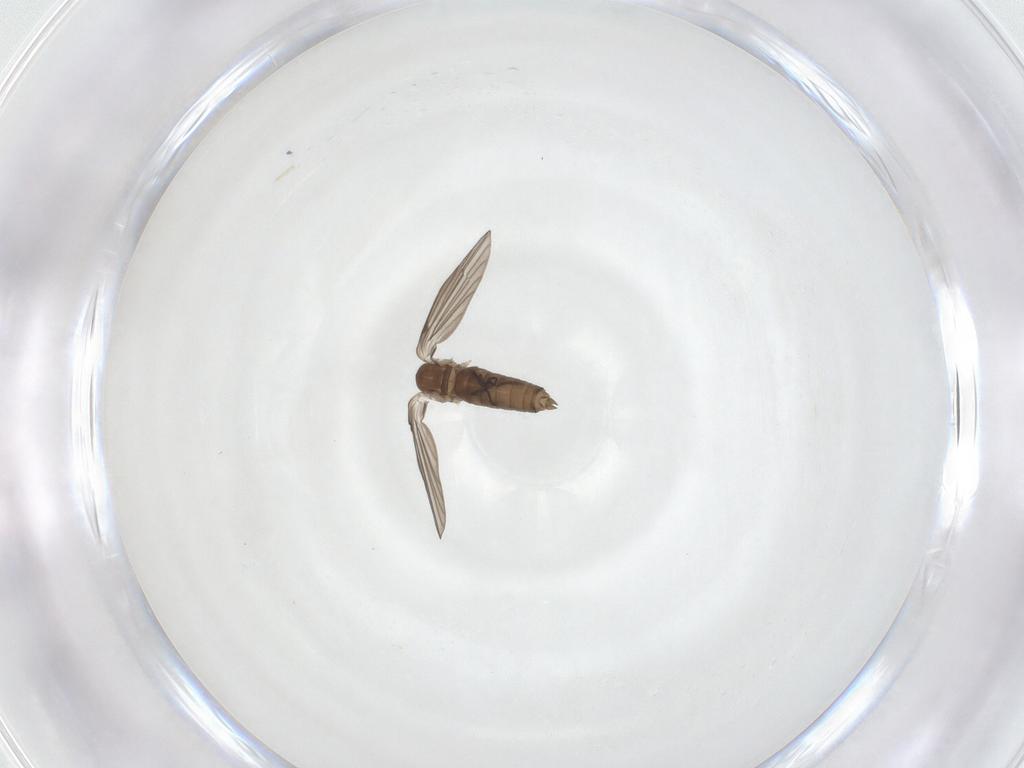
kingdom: Animalia
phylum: Arthropoda
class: Insecta
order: Diptera
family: Psychodidae
